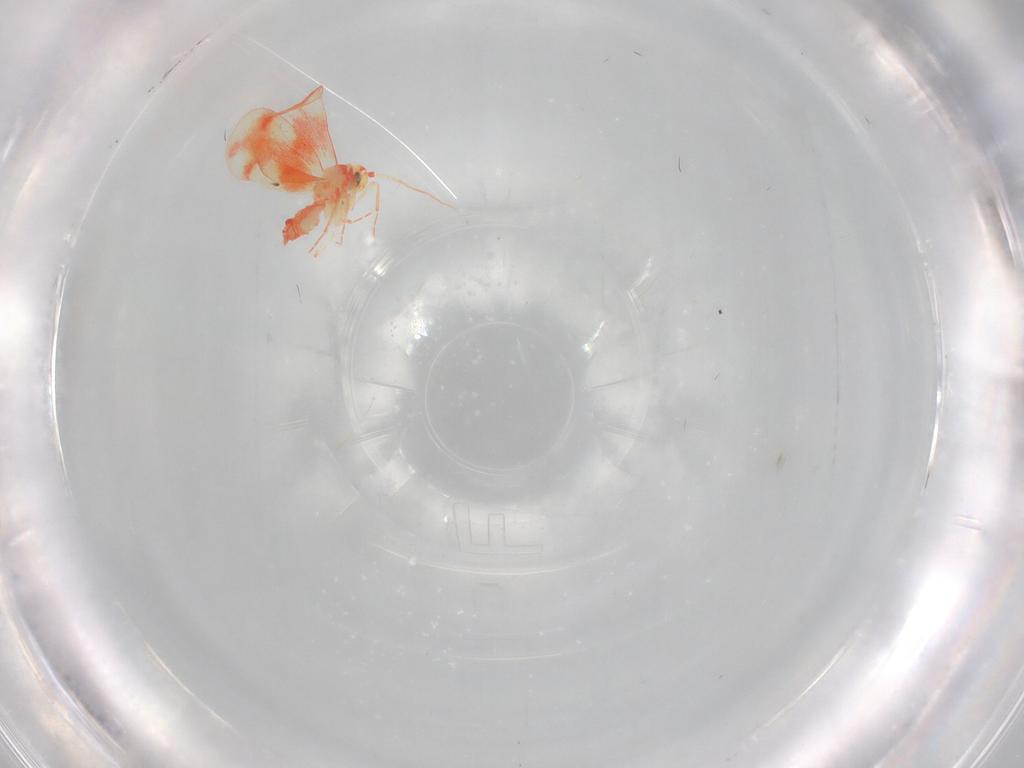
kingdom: Animalia
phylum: Arthropoda
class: Insecta
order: Hemiptera
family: Aleyrodidae
